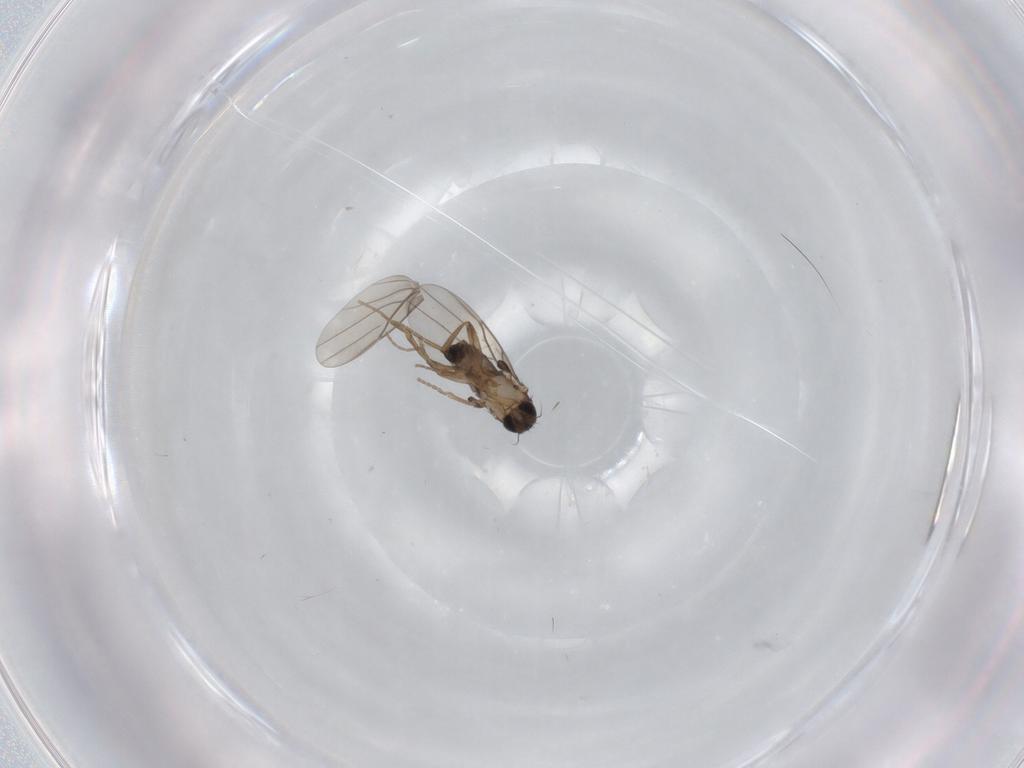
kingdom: Animalia
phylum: Arthropoda
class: Insecta
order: Diptera
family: Phoridae
